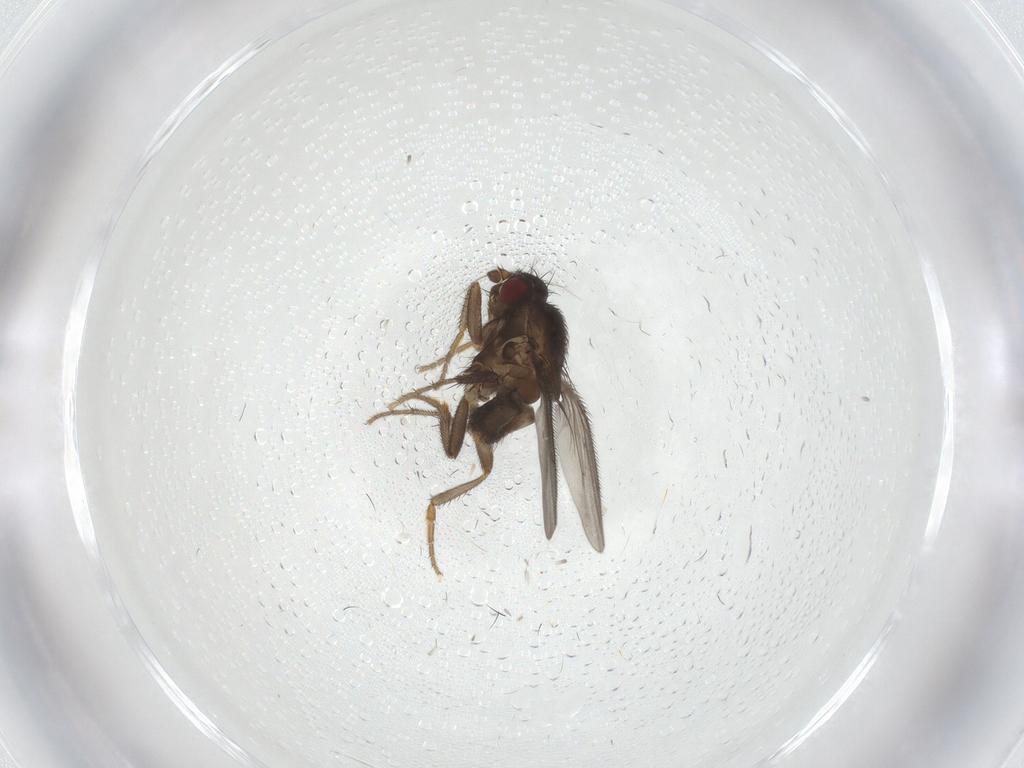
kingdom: Animalia
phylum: Arthropoda
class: Insecta
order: Diptera
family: Sphaeroceridae
